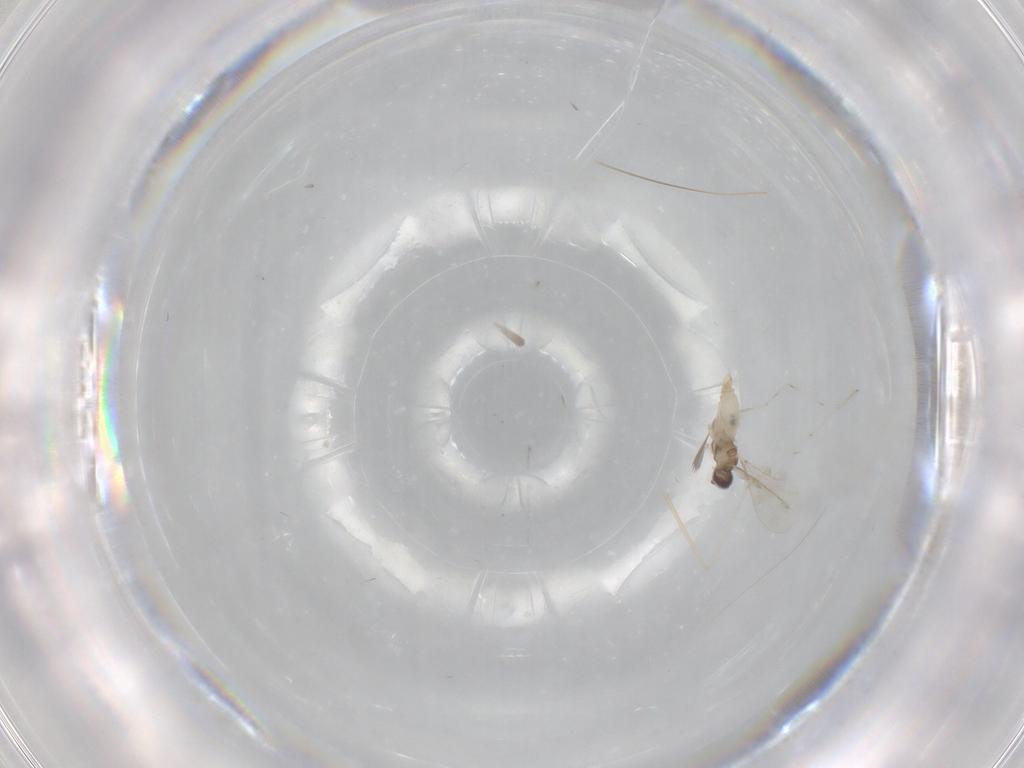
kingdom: Animalia
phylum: Arthropoda
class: Insecta
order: Diptera
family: Cecidomyiidae
